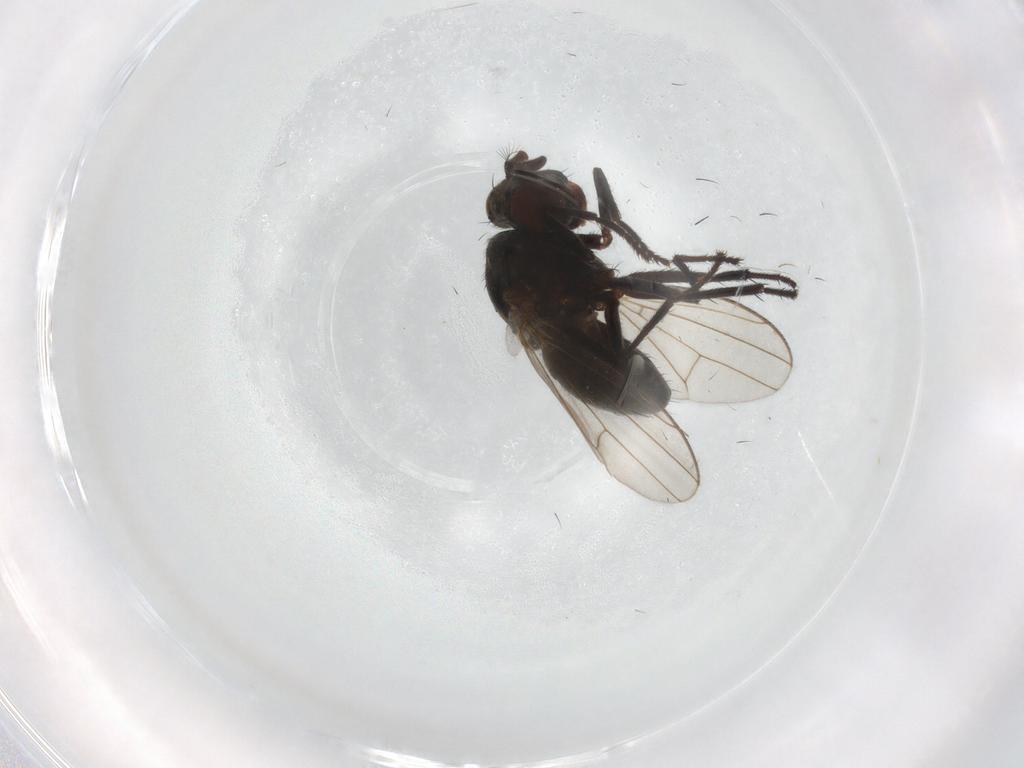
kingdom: Animalia
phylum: Arthropoda
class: Insecta
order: Diptera
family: Ephydridae
